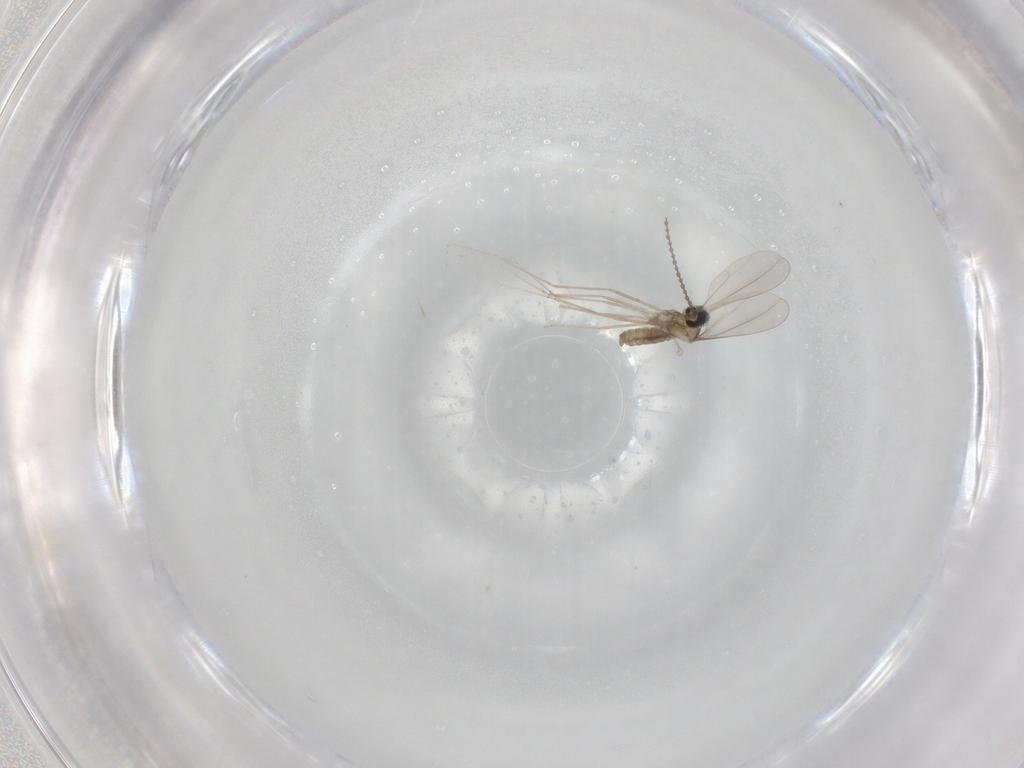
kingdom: Animalia
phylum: Arthropoda
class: Insecta
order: Diptera
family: Cecidomyiidae
